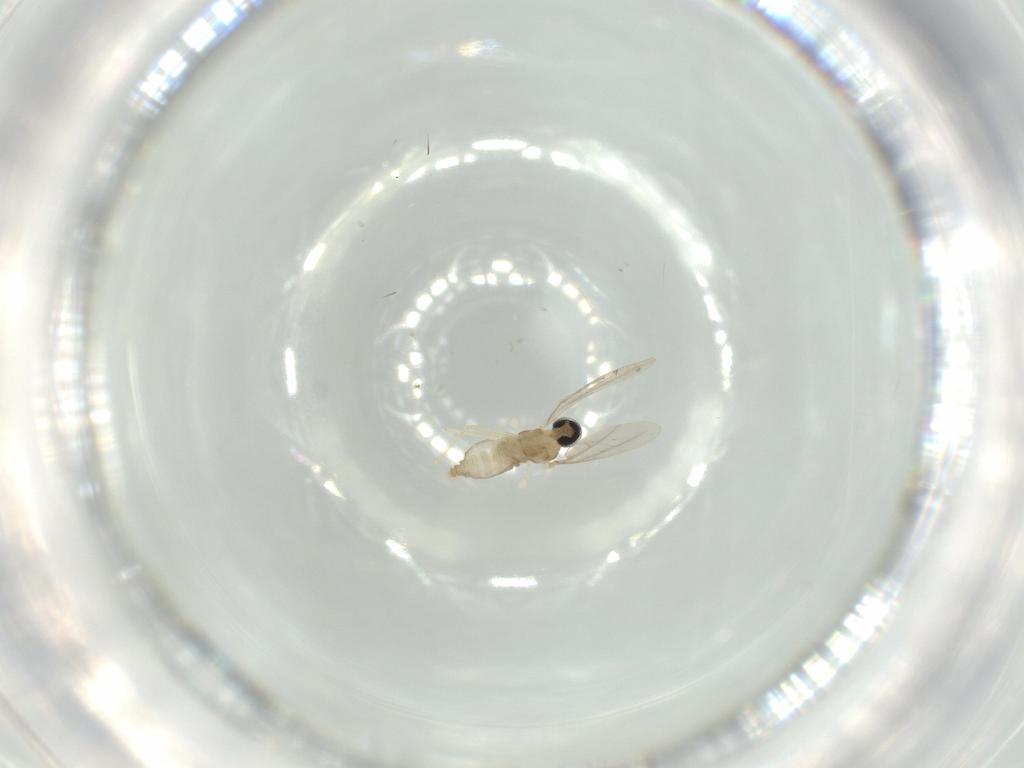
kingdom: Animalia
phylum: Arthropoda
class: Insecta
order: Diptera
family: Cecidomyiidae
